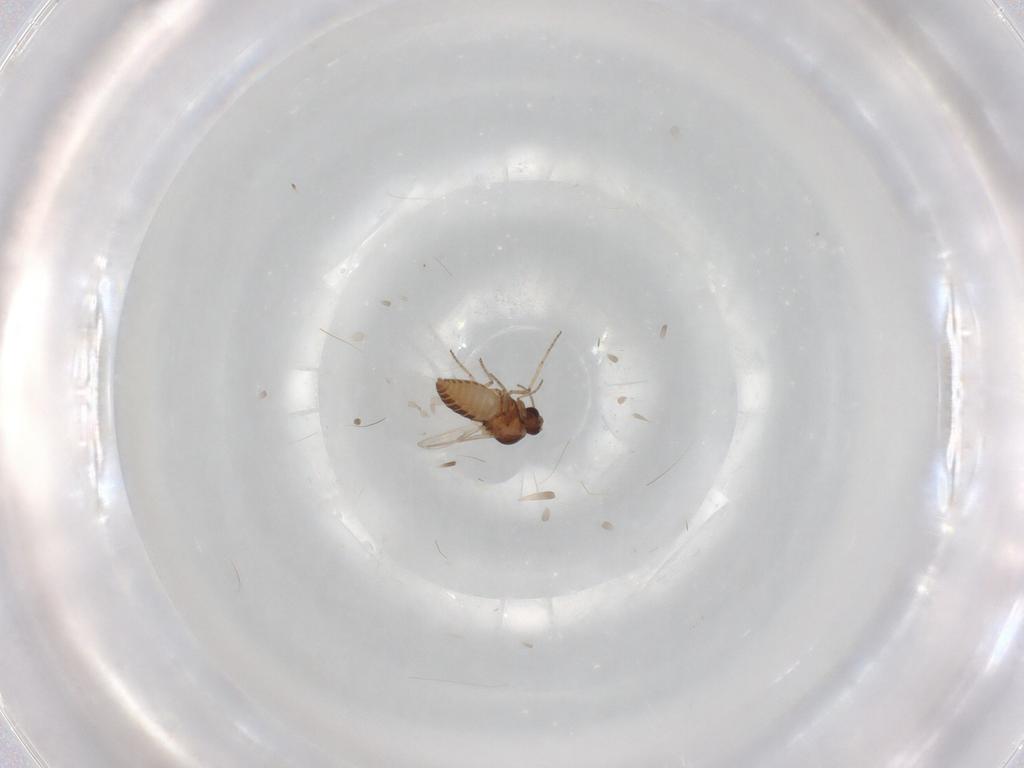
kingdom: Animalia
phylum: Arthropoda
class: Insecta
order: Diptera
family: Ceratopogonidae
